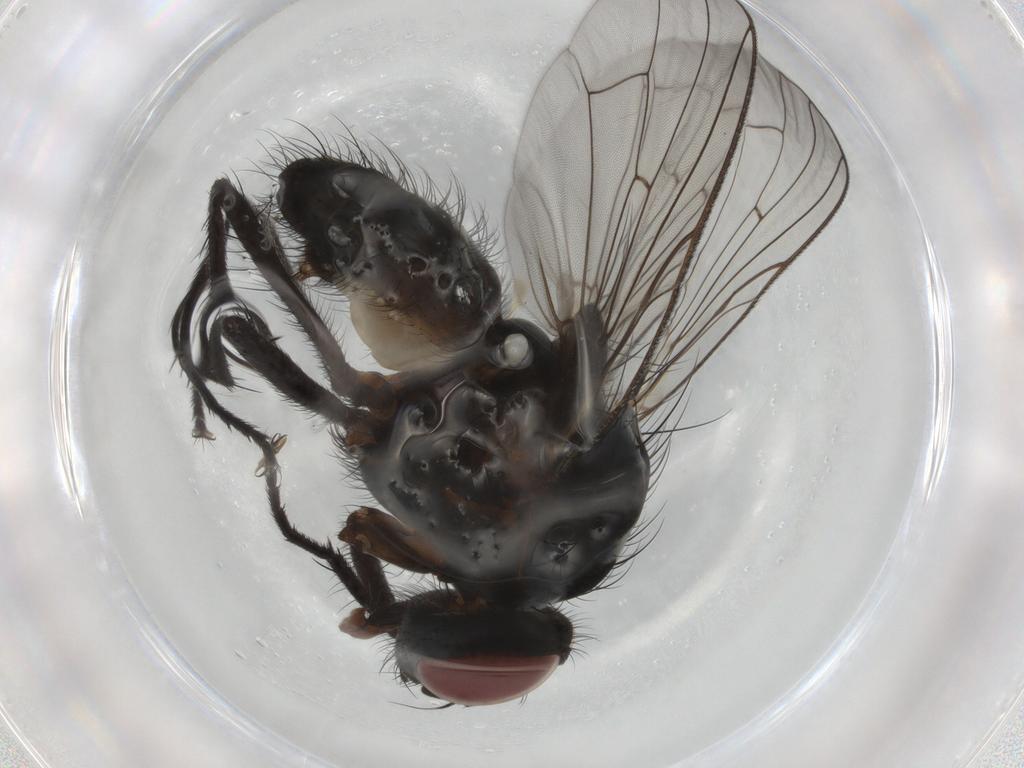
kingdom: Animalia
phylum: Arthropoda
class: Insecta
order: Diptera
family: Anthomyiidae
